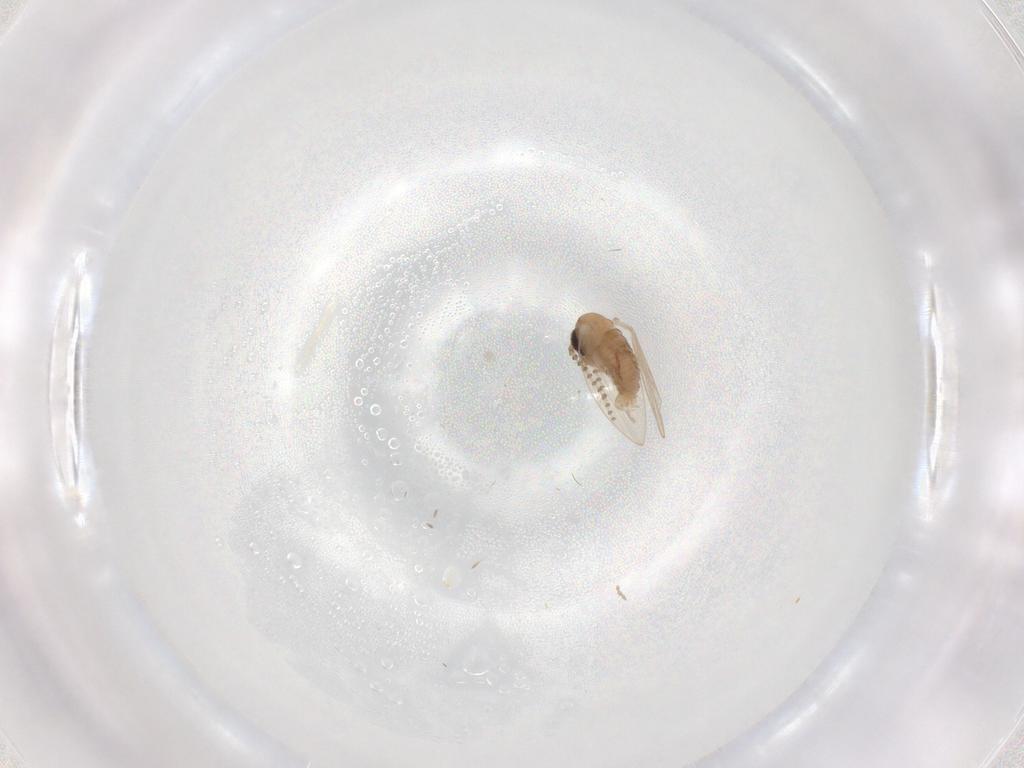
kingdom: Animalia
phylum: Arthropoda
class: Insecta
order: Diptera
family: Psychodidae
